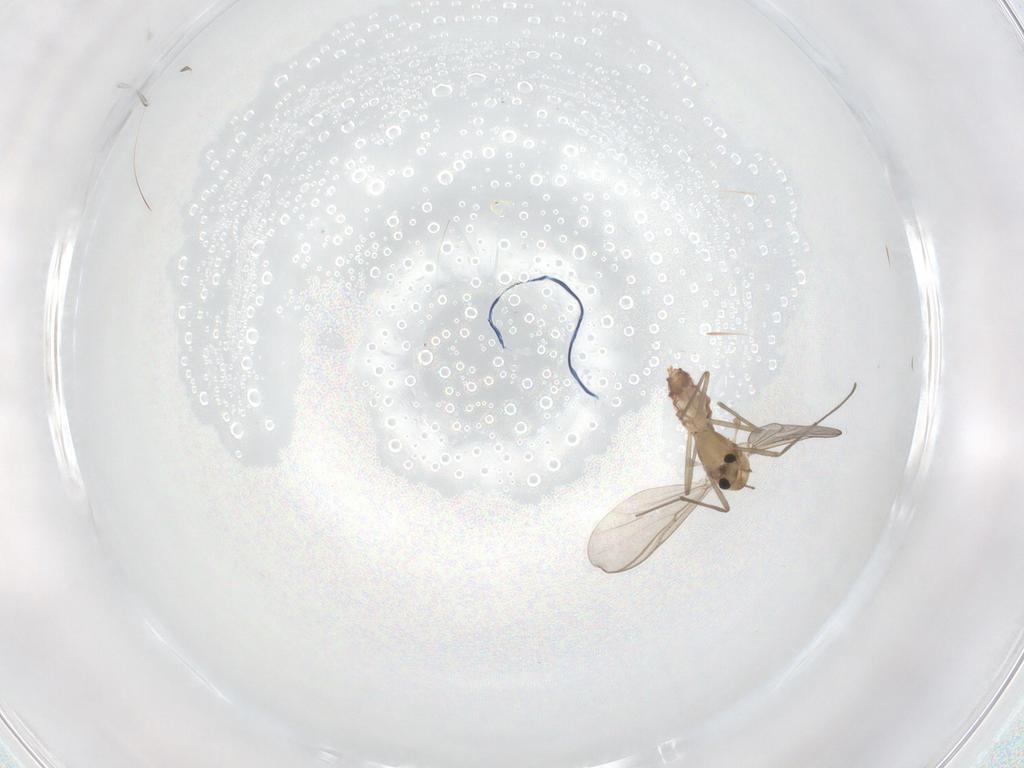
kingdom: Animalia
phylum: Arthropoda
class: Insecta
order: Diptera
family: Chironomidae
